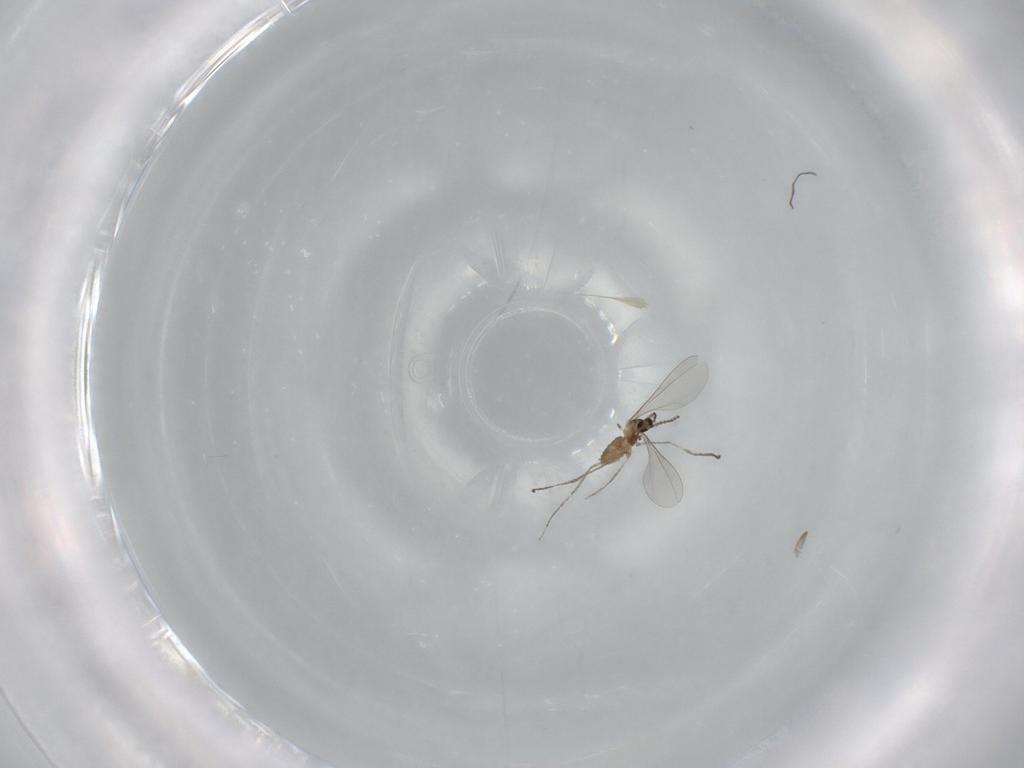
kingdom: Animalia
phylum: Arthropoda
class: Insecta
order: Diptera
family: Cecidomyiidae
